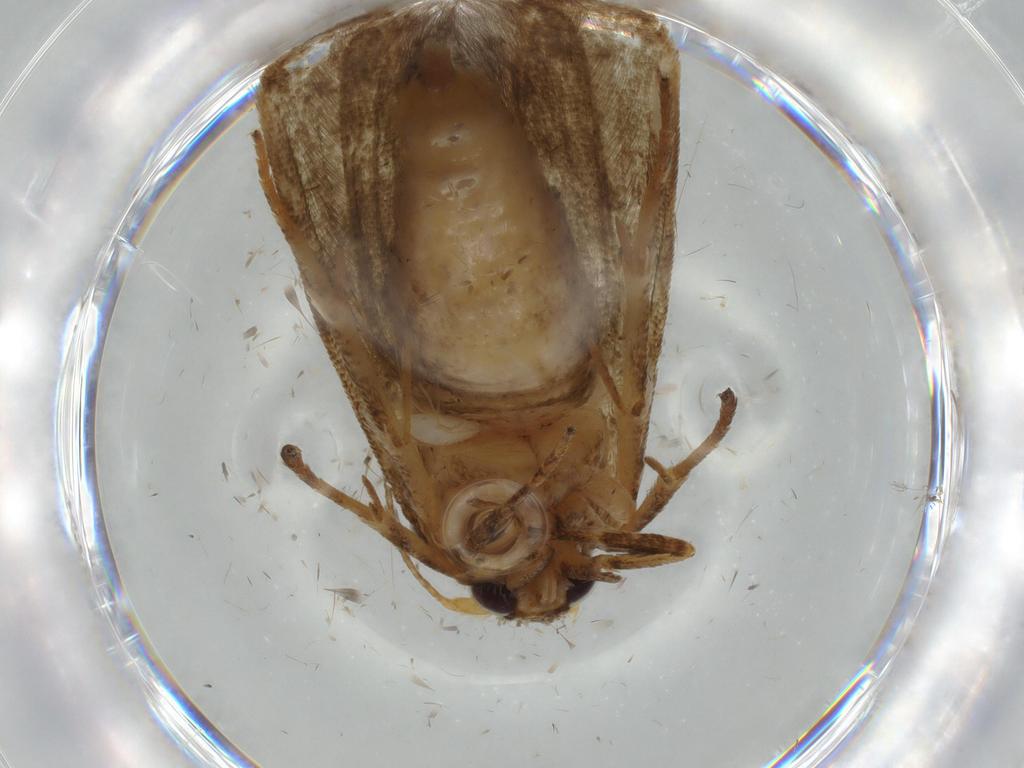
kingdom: Animalia
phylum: Arthropoda
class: Insecta
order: Lepidoptera
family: Blastobasidae
